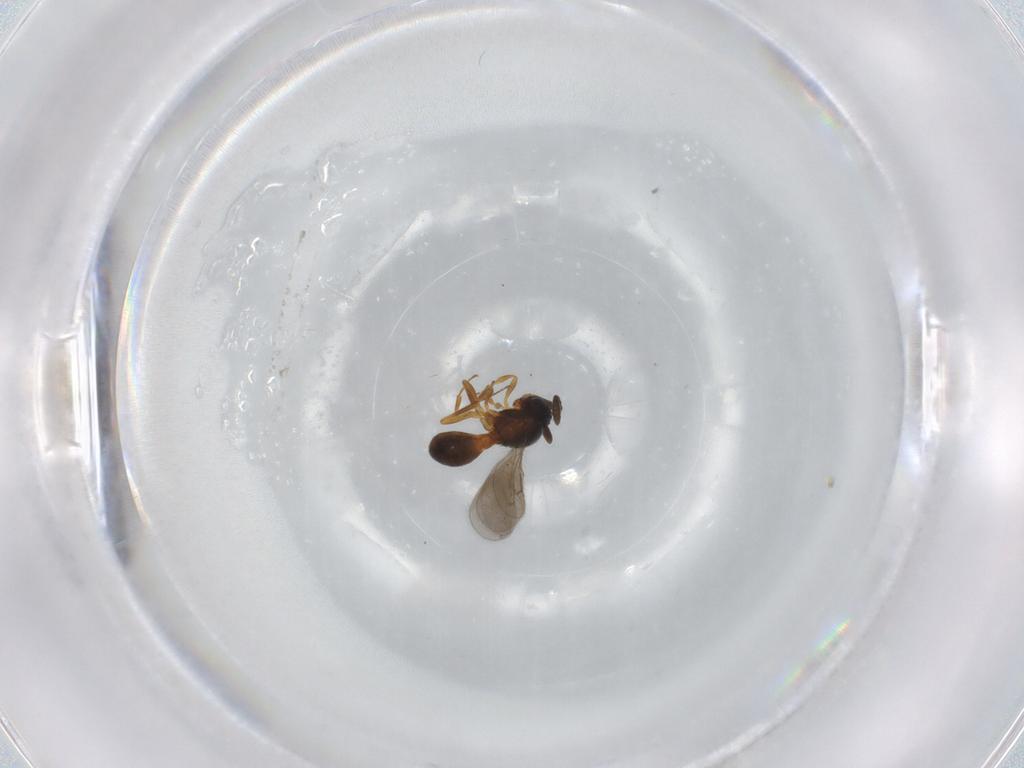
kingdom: Animalia
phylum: Arthropoda
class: Insecta
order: Hymenoptera
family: Scelionidae
